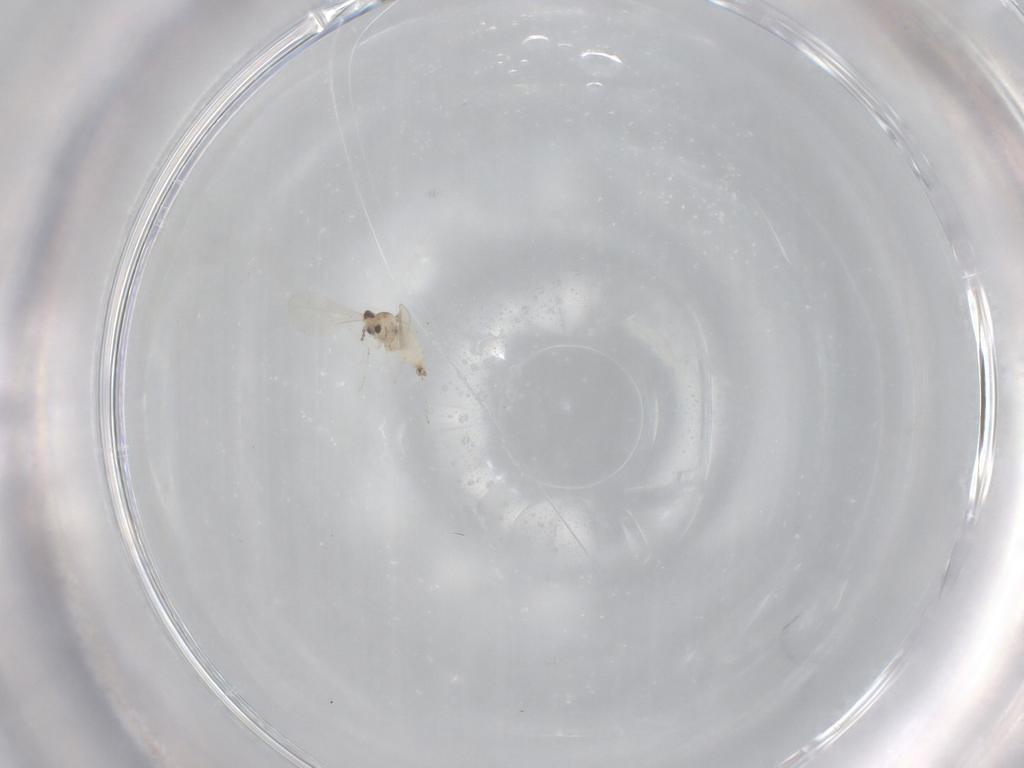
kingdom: Animalia
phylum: Arthropoda
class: Insecta
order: Diptera
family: Cecidomyiidae
